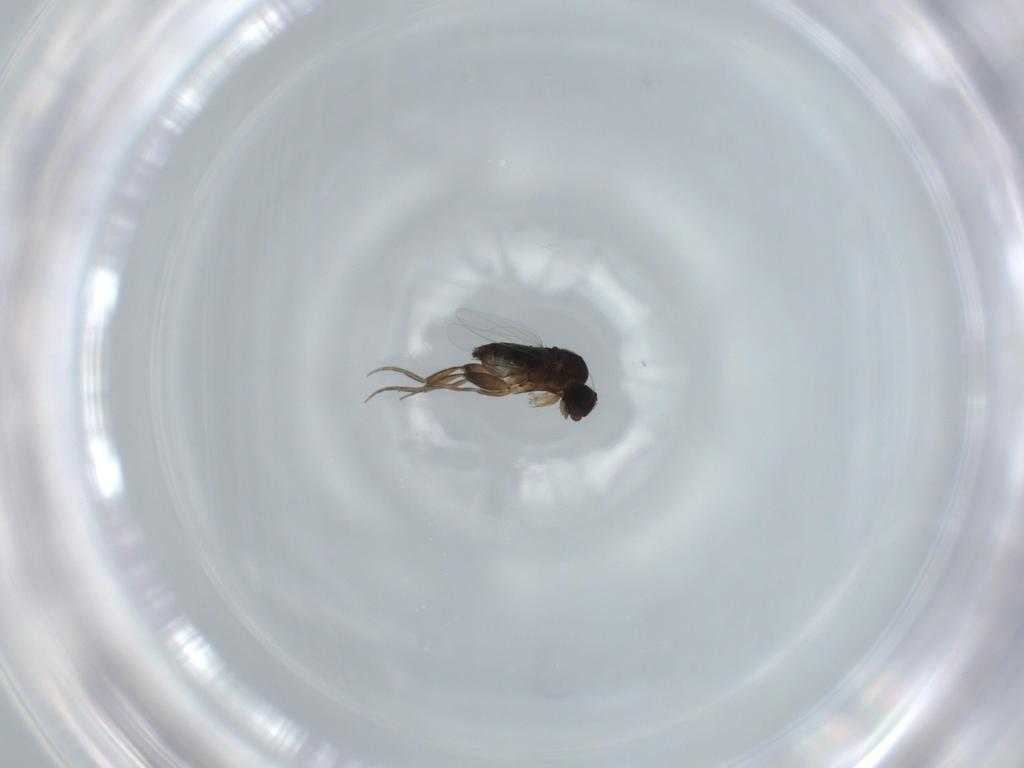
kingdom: Animalia
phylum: Arthropoda
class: Insecta
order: Diptera
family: Phoridae
